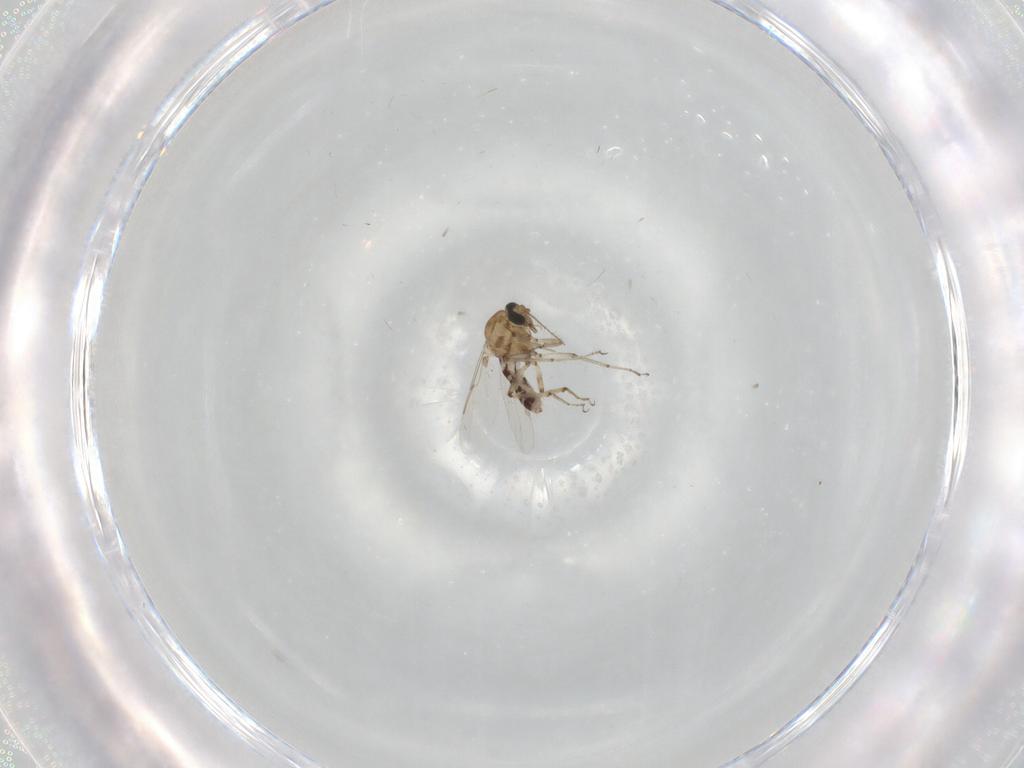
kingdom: Animalia
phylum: Arthropoda
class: Insecta
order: Diptera
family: Ceratopogonidae
